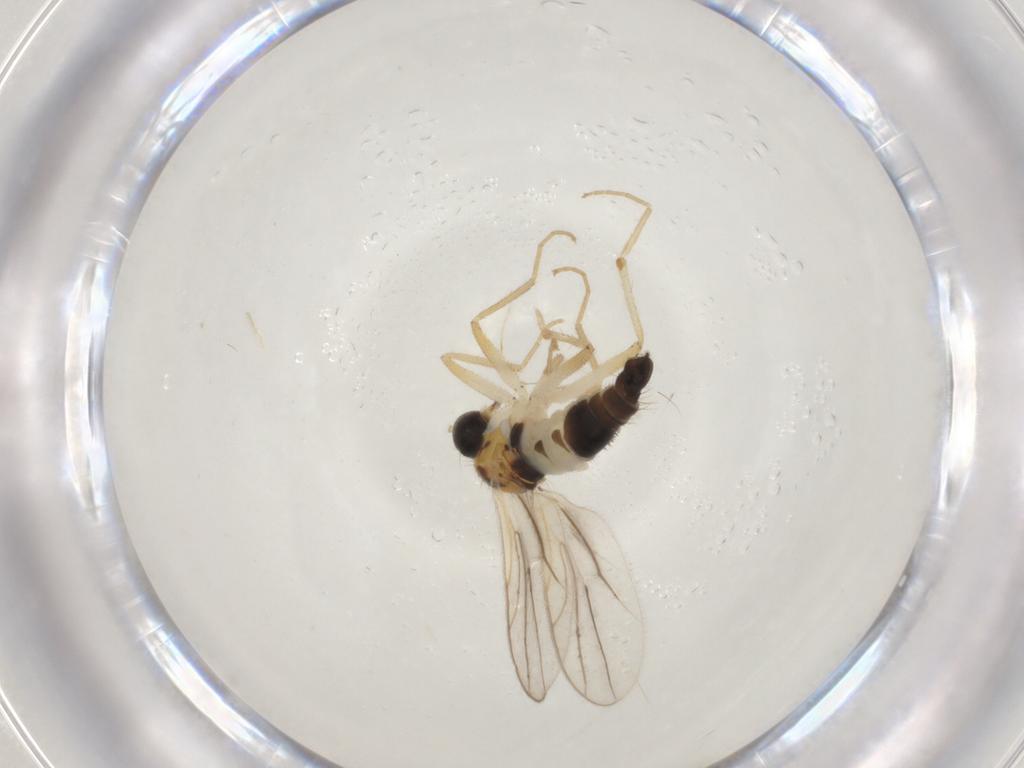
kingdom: Animalia
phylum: Arthropoda
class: Insecta
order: Diptera
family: Hybotidae
